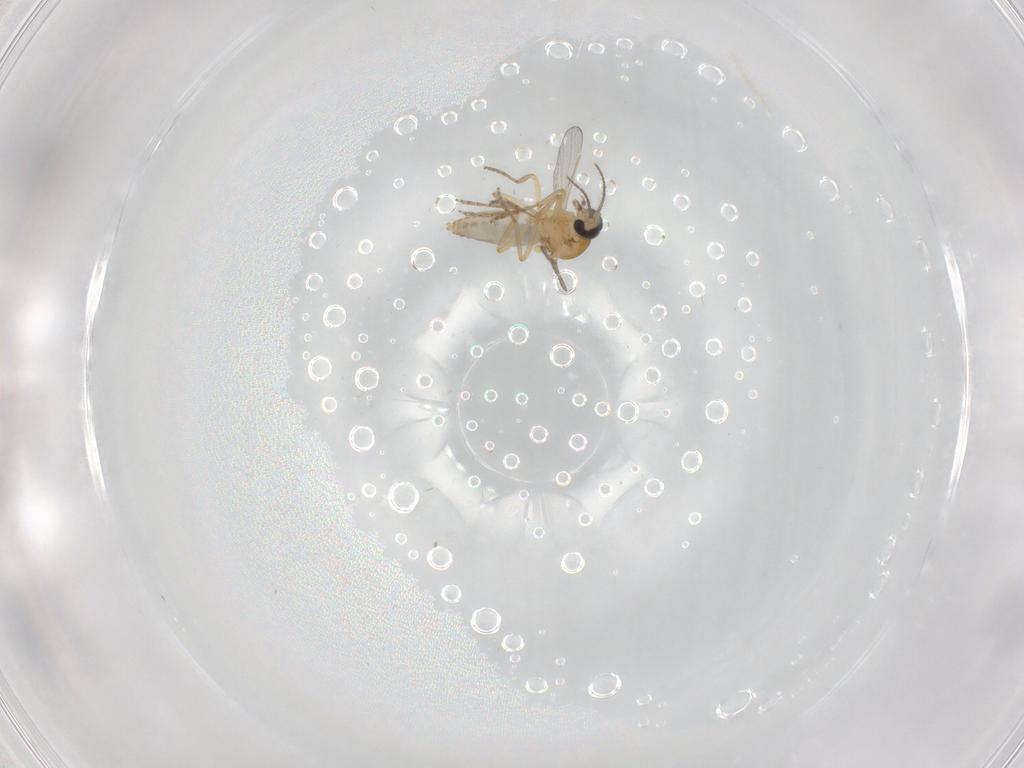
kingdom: Animalia
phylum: Arthropoda
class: Insecta
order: Diptera
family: Ceratopogonidae
